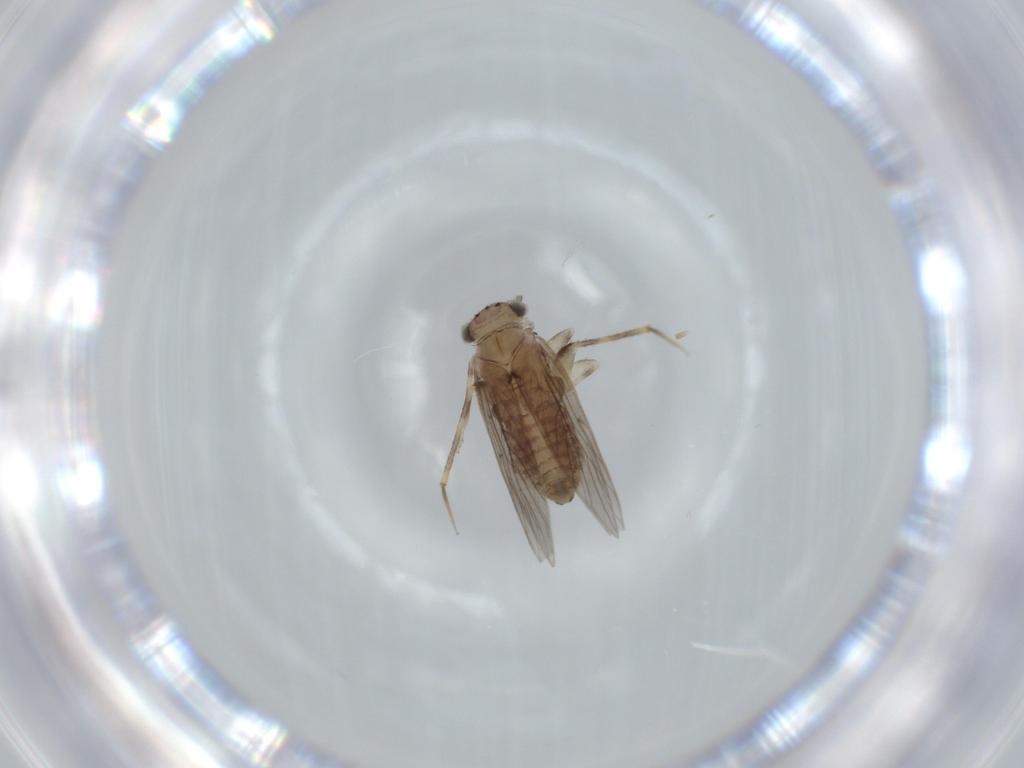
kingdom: Animalia
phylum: Arthropoda
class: Insecta
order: Psocodea
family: Lepidopsocidae
